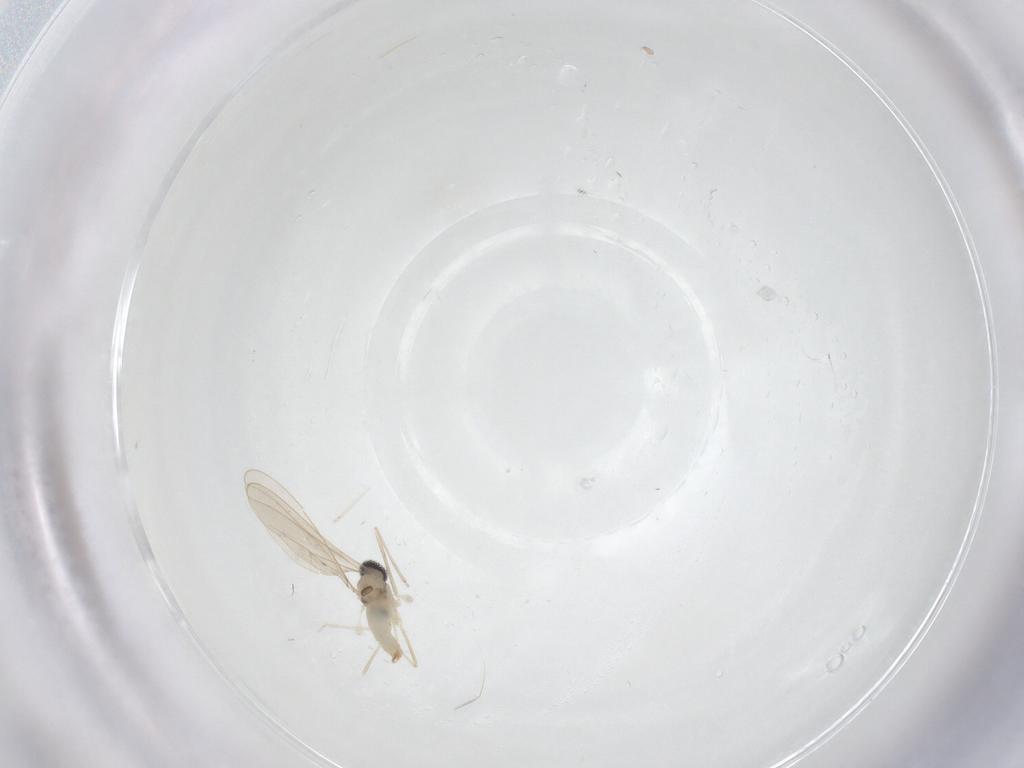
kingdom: Animalia
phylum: Arthropoda
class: Insecta
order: Diptera
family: Cecidomyiidae
